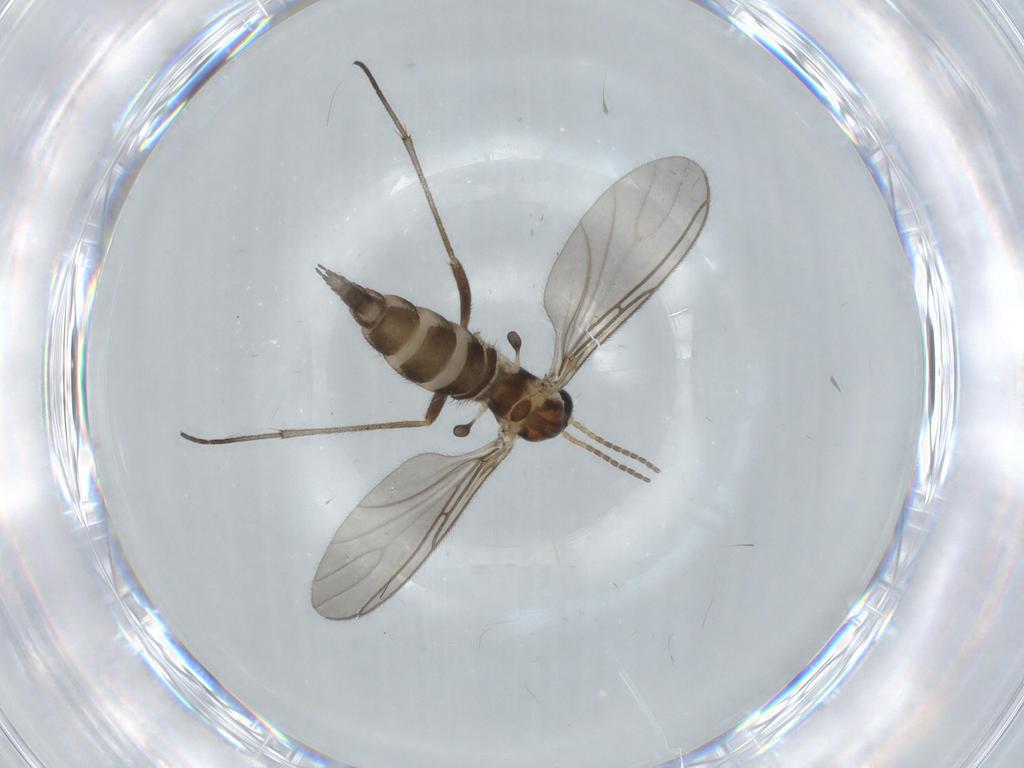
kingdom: Animalia
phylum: Arthropoda
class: Insecta
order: Diptera
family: Sciaridae
